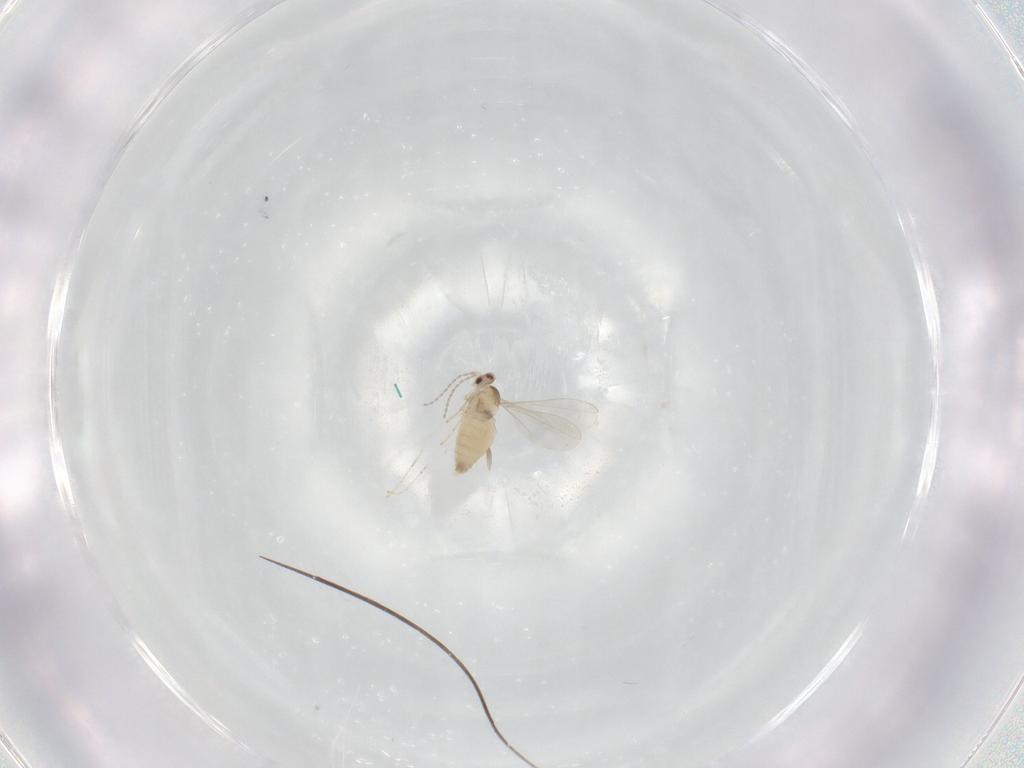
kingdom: Animalia
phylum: Arthropoda
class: Insecta
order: Diptera
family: Cecidomyiidae
